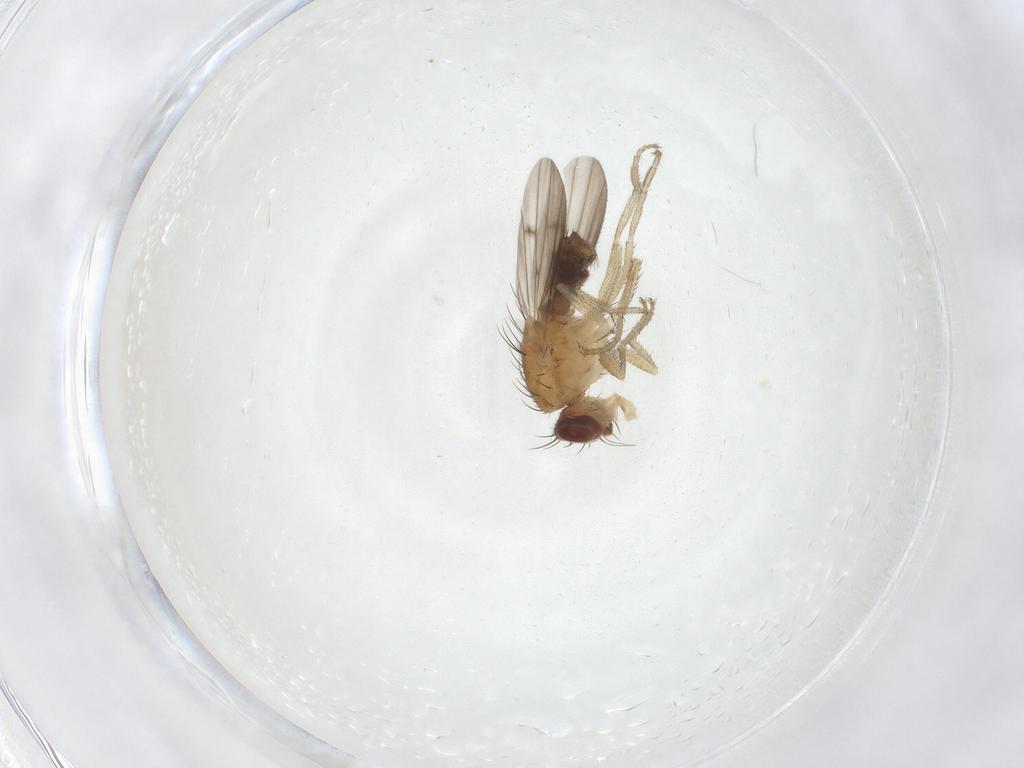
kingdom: Animalia
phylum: Arthropoda
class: Insecta
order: Diptera
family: Heleomyzidae
